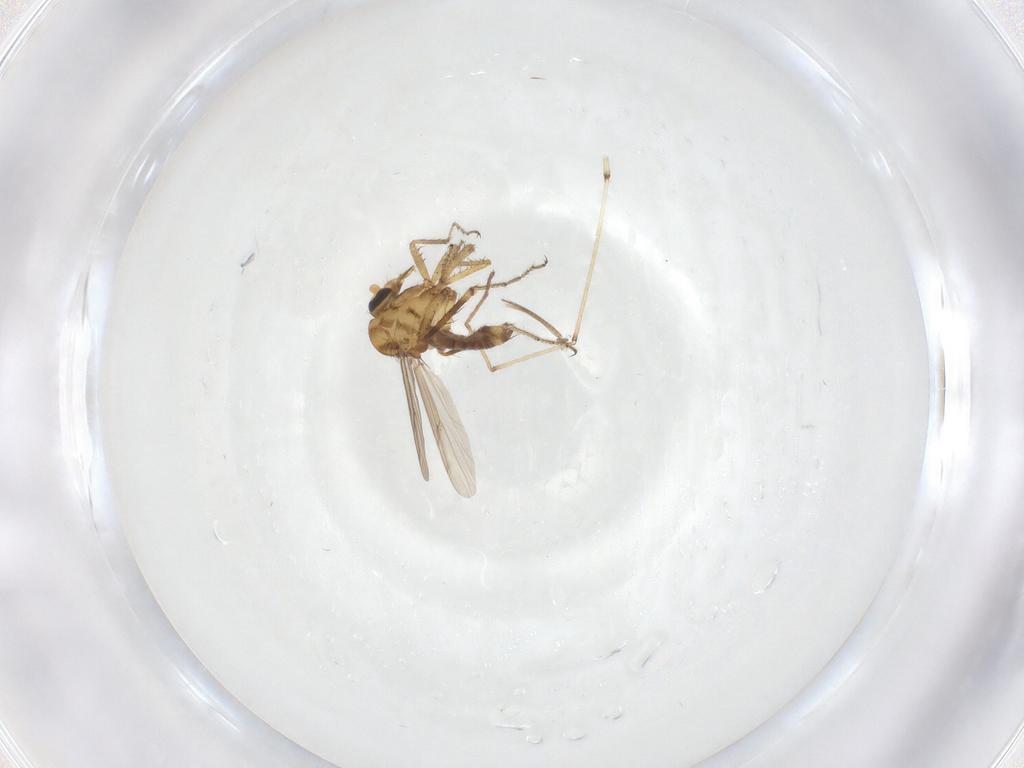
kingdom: Animalia
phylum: Arthropoda
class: Insecta
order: Diptera
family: Chironomidae
